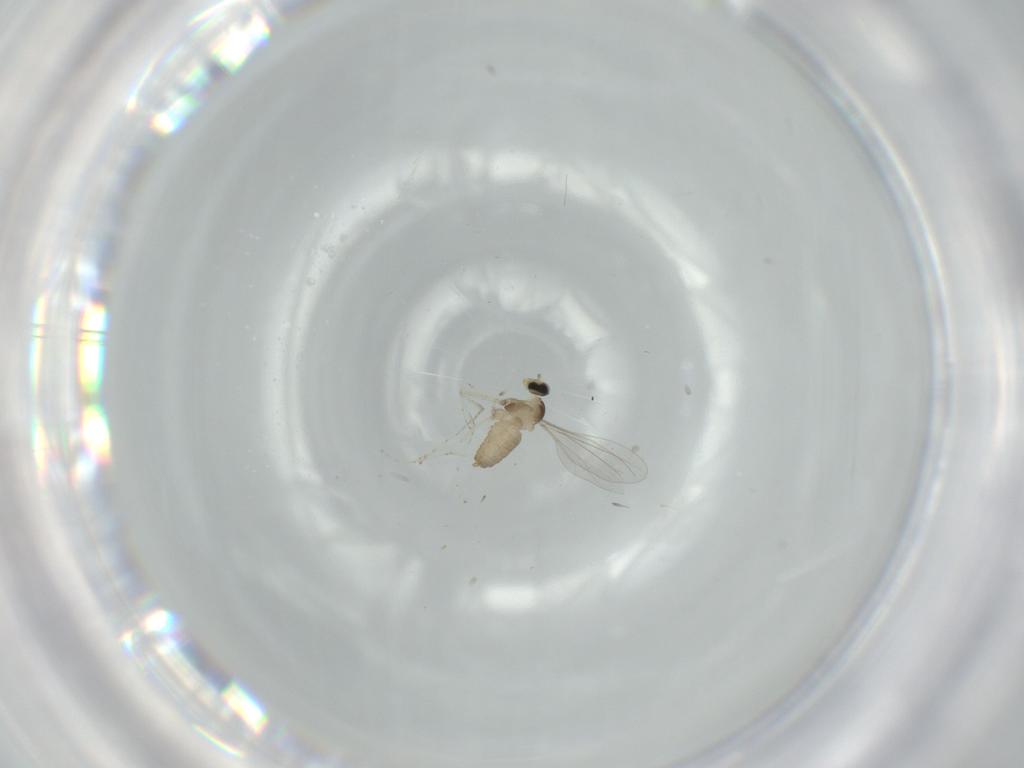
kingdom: Animalia
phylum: Arthropoda
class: Insecta
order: Diptera
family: Cecidomyiidae
